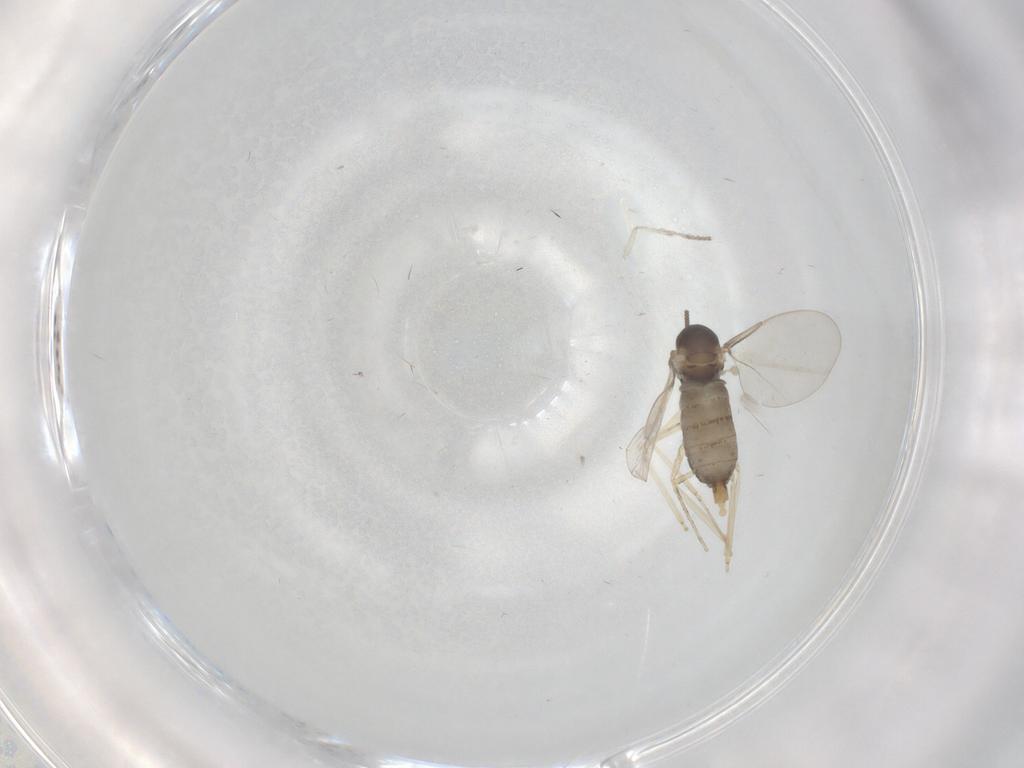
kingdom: Animalia
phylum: Arthropoda
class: Insecta
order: Diptera
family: Cecidomyiidae
